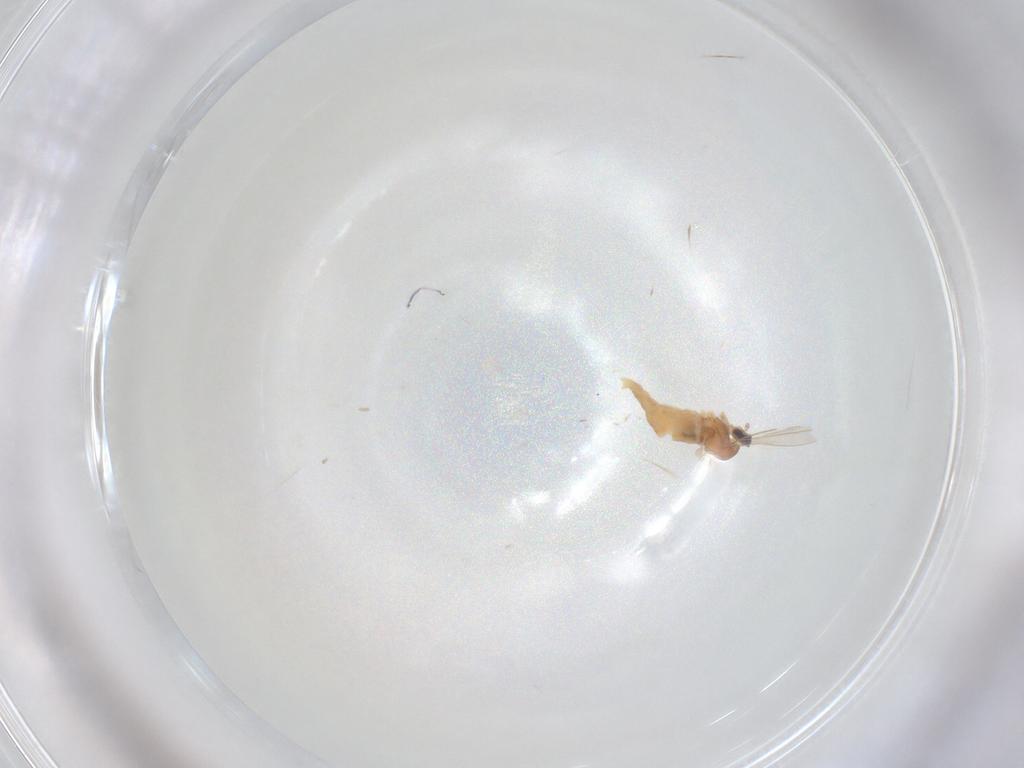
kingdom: Animalia
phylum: Arthropoda
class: Insecta
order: Diptera
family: Cecidomyiidae
